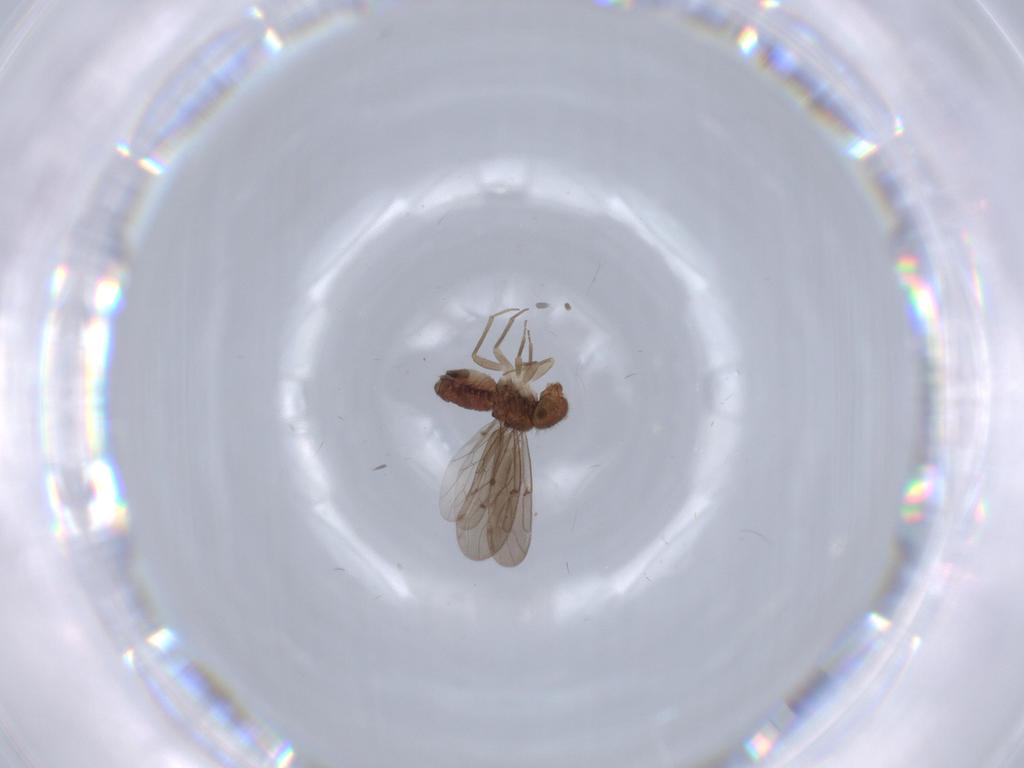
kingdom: Animalia
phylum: Arthropoda
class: Insecta
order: Psocodea
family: Ectopsocidae
